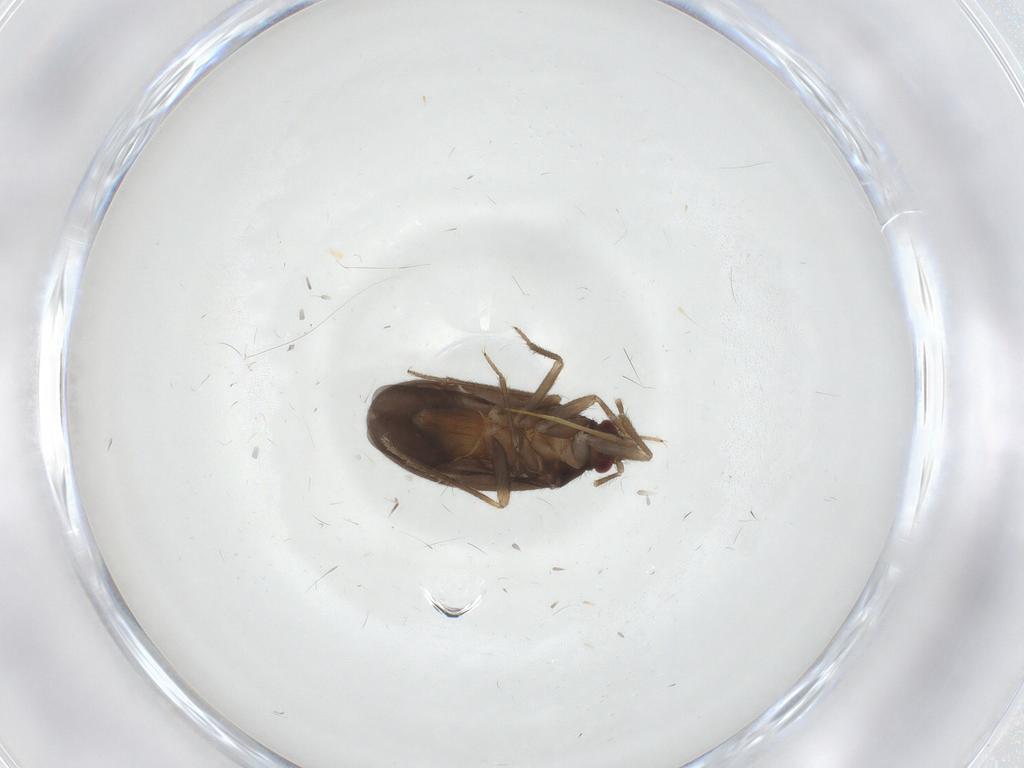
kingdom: Animalia
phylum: Arthropoda
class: Insecta
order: Hemiptera
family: Ceratocombidae
